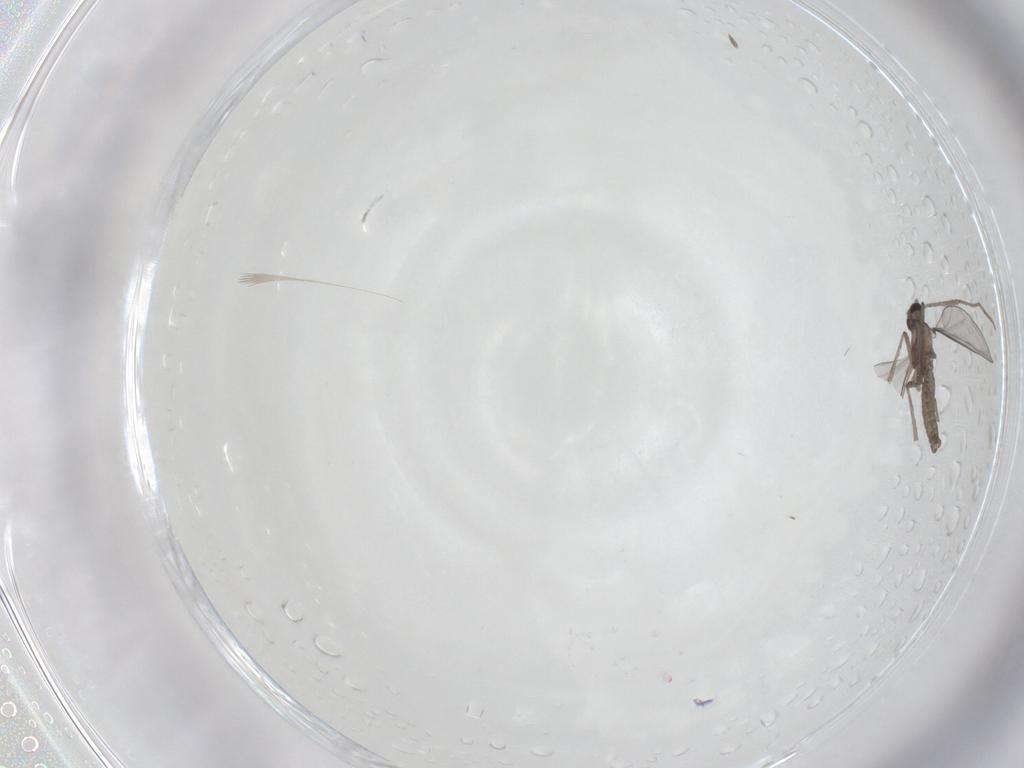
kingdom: Animalia
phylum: Arthropoda
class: Insecta
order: Diptera
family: Cecidomyiidae
